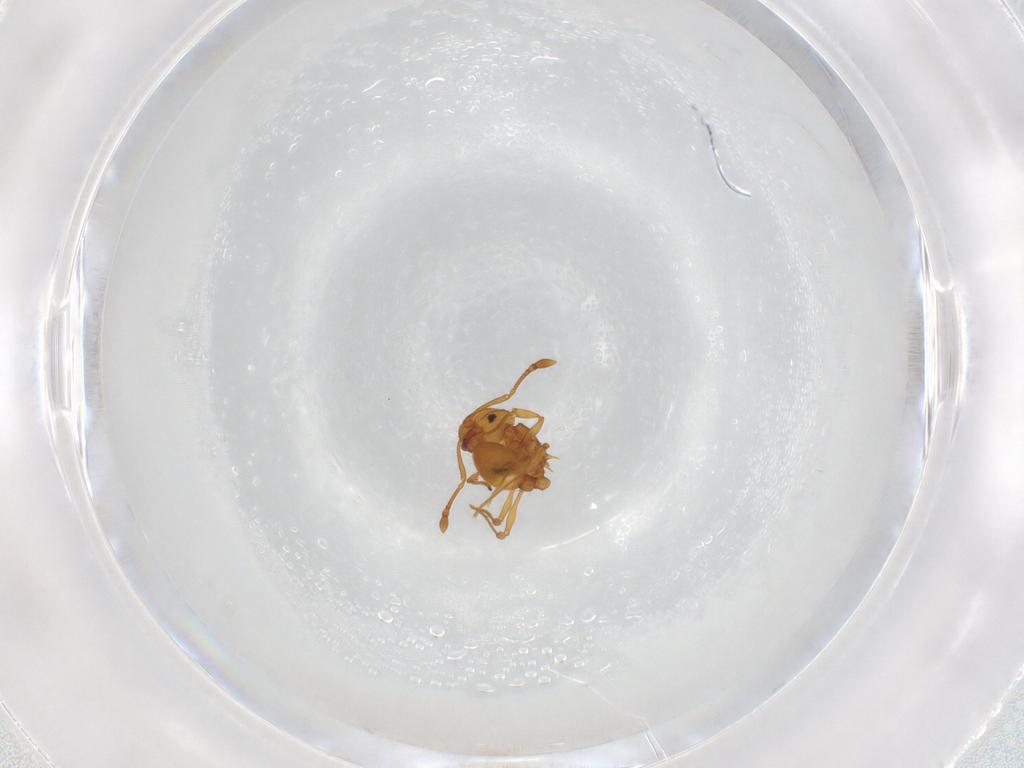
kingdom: Animalia
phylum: Arthropoda
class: Insecta
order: Hymenoptera
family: Formicidae
